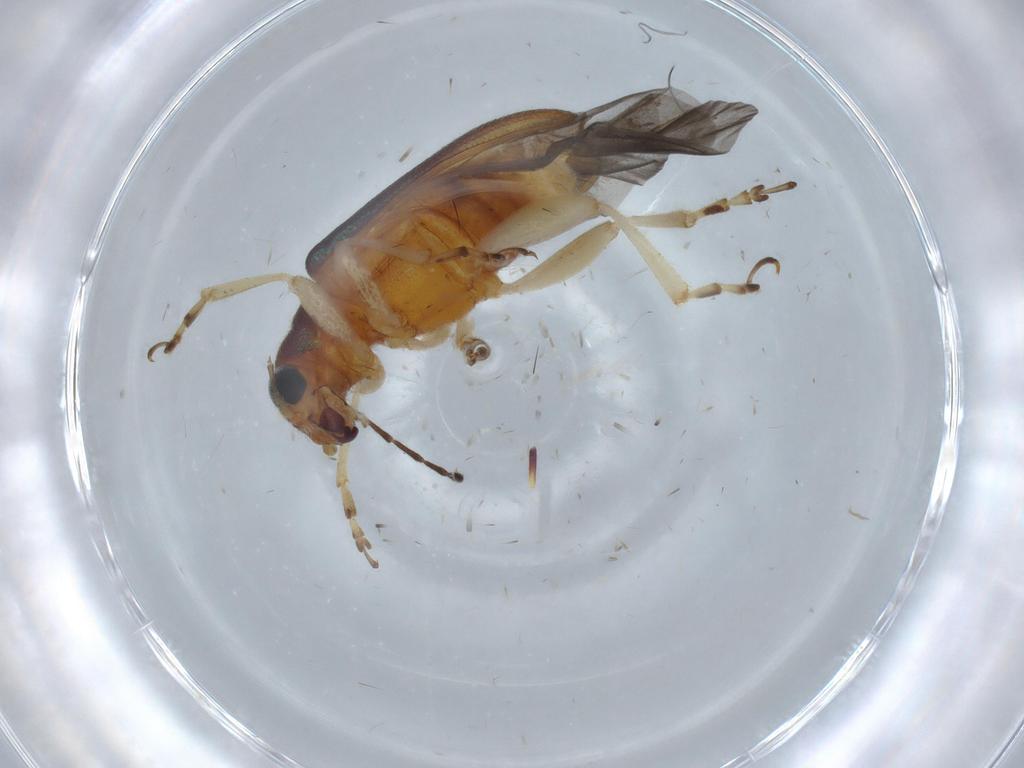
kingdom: Animalia
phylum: Arthropoda
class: Insecta
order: Coleoptera
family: Chrysomelidae
